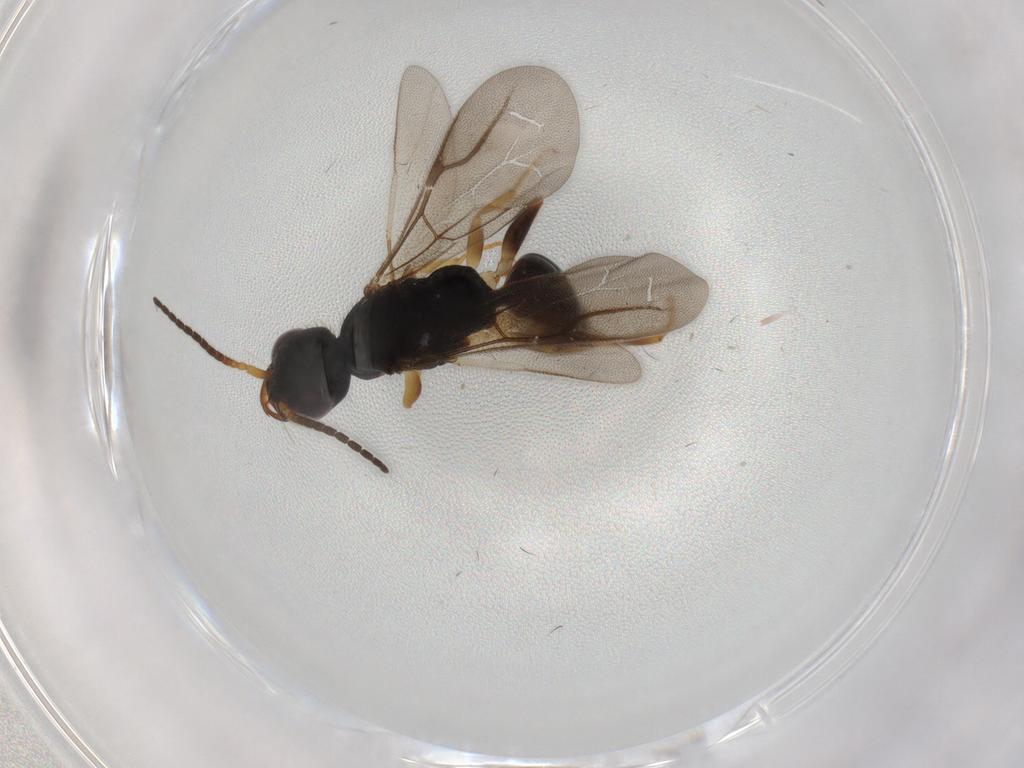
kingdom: Animalia
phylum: Arthropoda
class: Insecta
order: Hymenoptera
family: Bethylidae
